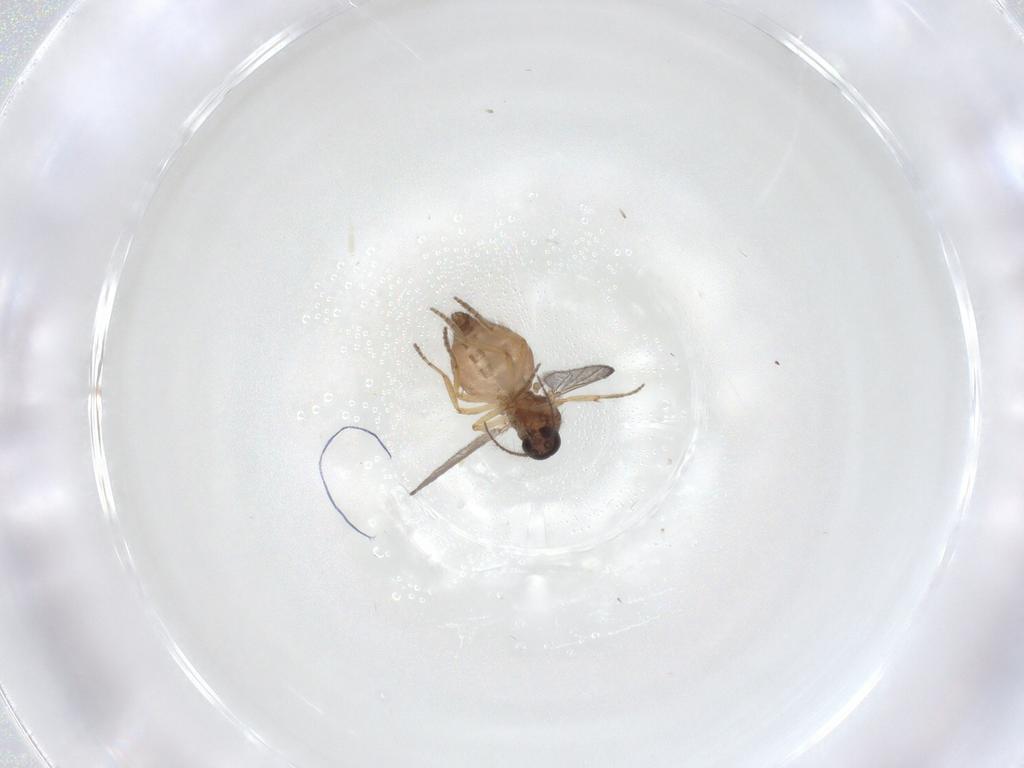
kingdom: Animalia
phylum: Arthropoda
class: Insecta
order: Diptera
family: Ceratopogonidae
